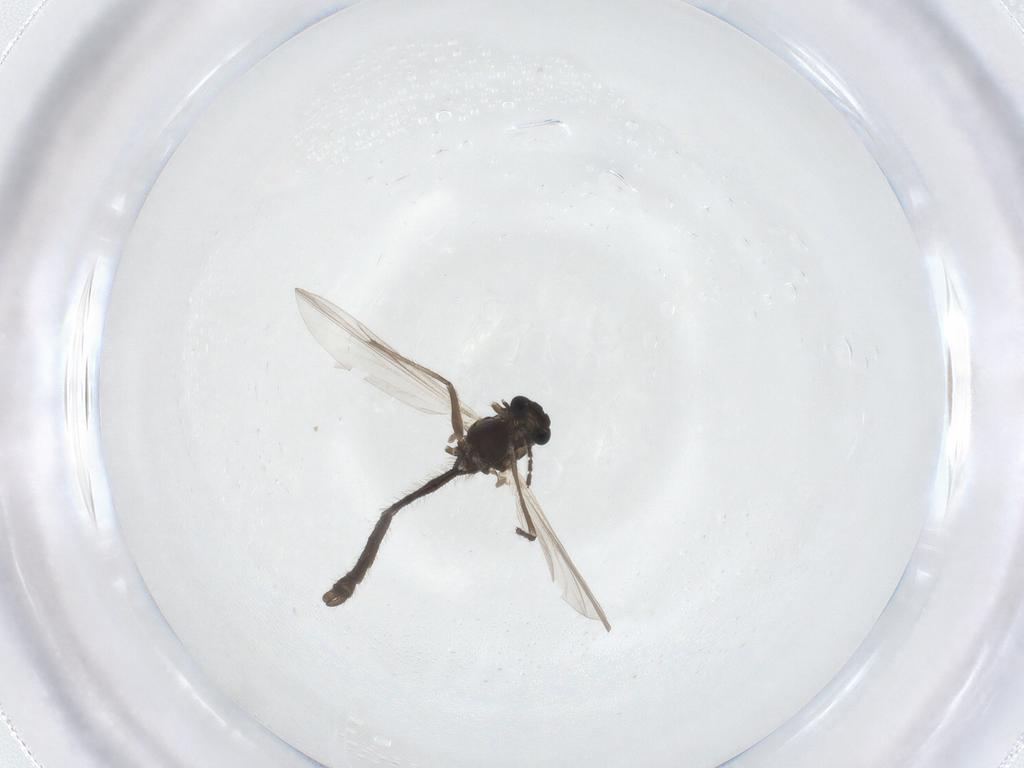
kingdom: Animalia
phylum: Arthropoda
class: Insecta
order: Diptera
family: Chironomidae
